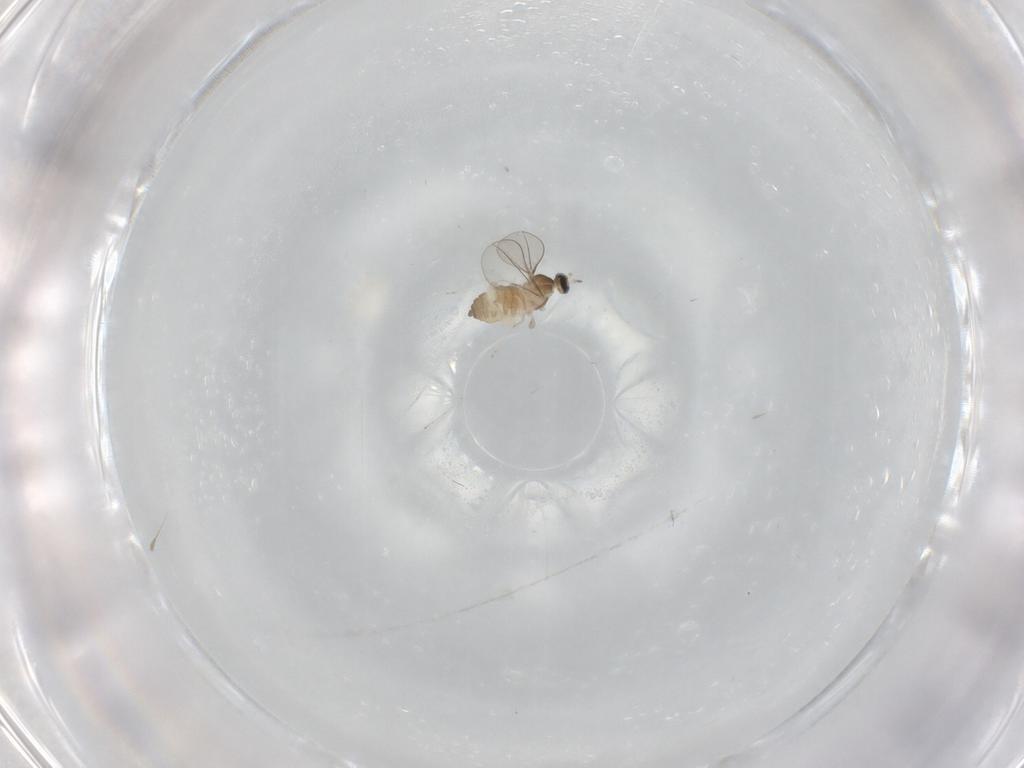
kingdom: Animalia
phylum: Arthropoda
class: Insecta
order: Diptera
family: Cecidomyiidae
